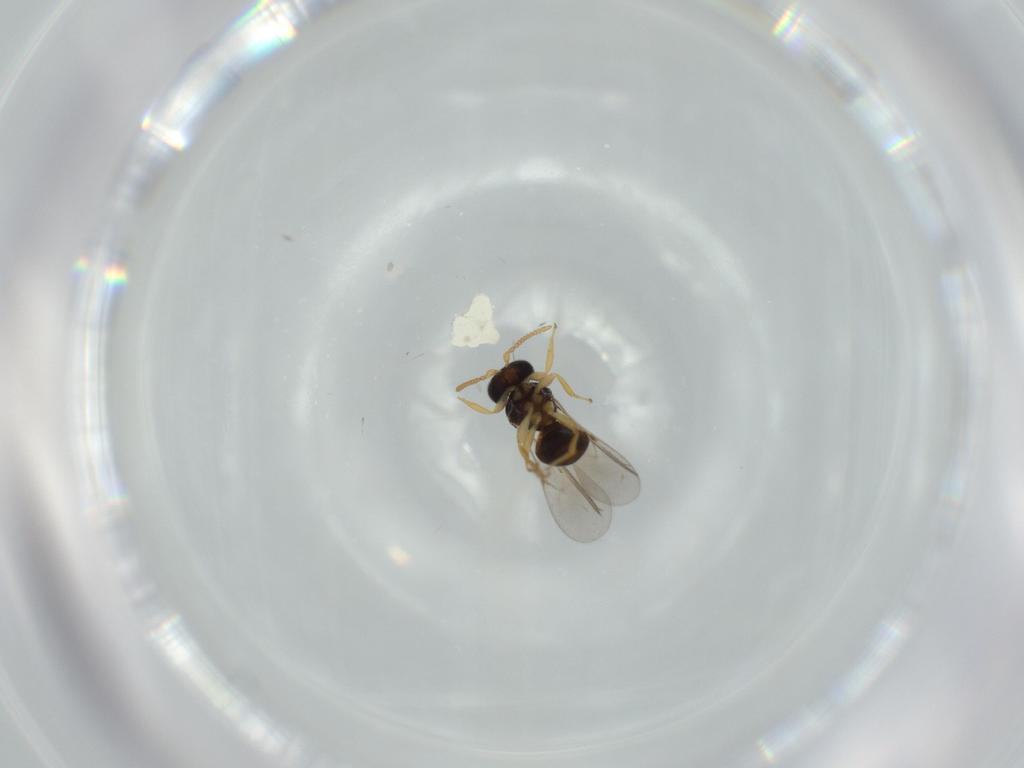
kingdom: Animalia
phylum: Arthropoda
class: Insecta
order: Hymenoptera
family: Scelionidae
